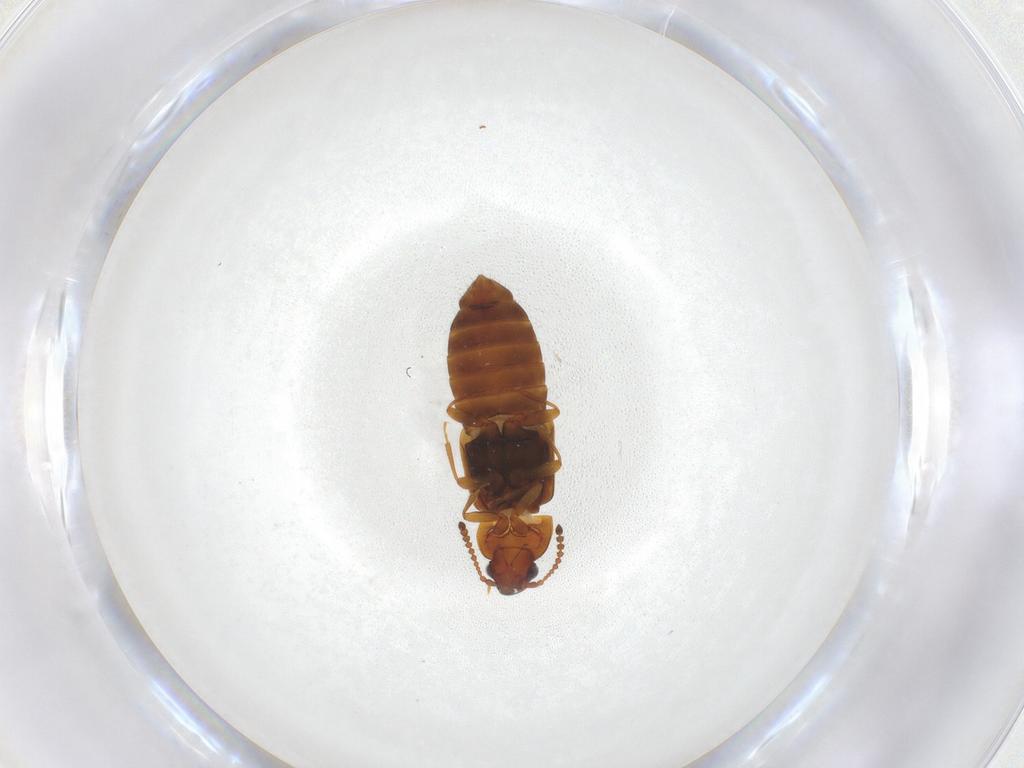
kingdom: Animalia
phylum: Arthropoda
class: Insecta
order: Coleoptera
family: Staphylinidae
